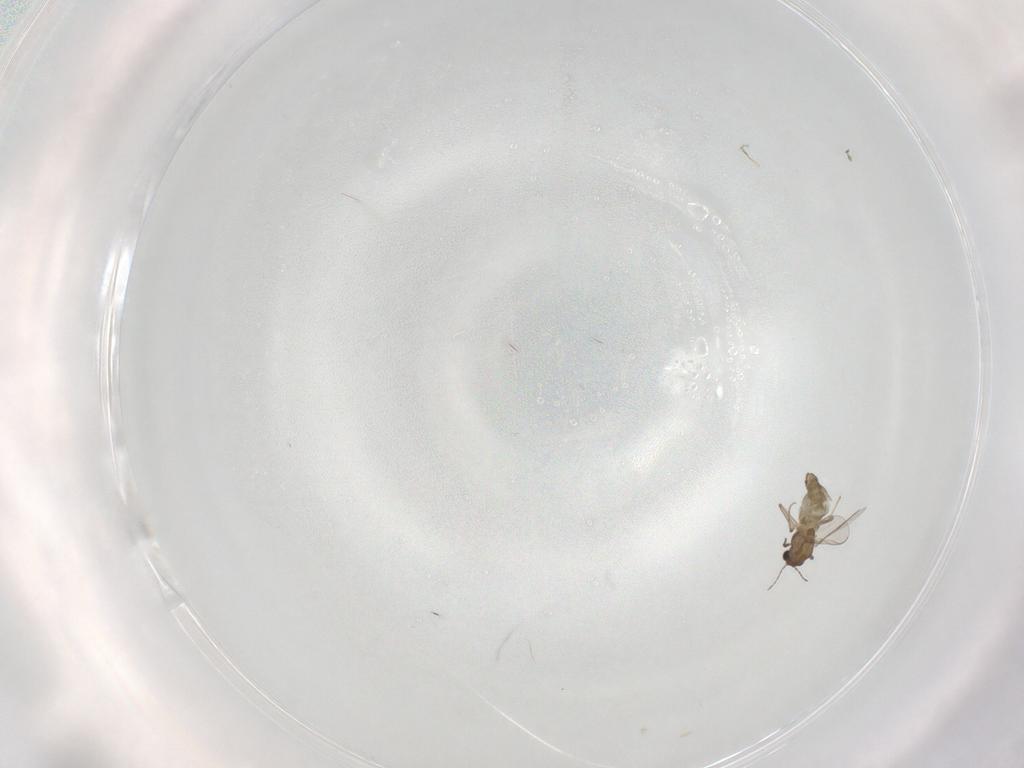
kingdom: Animalia
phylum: Arthropoda
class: Insecta
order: Diptera
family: Chironomidae
